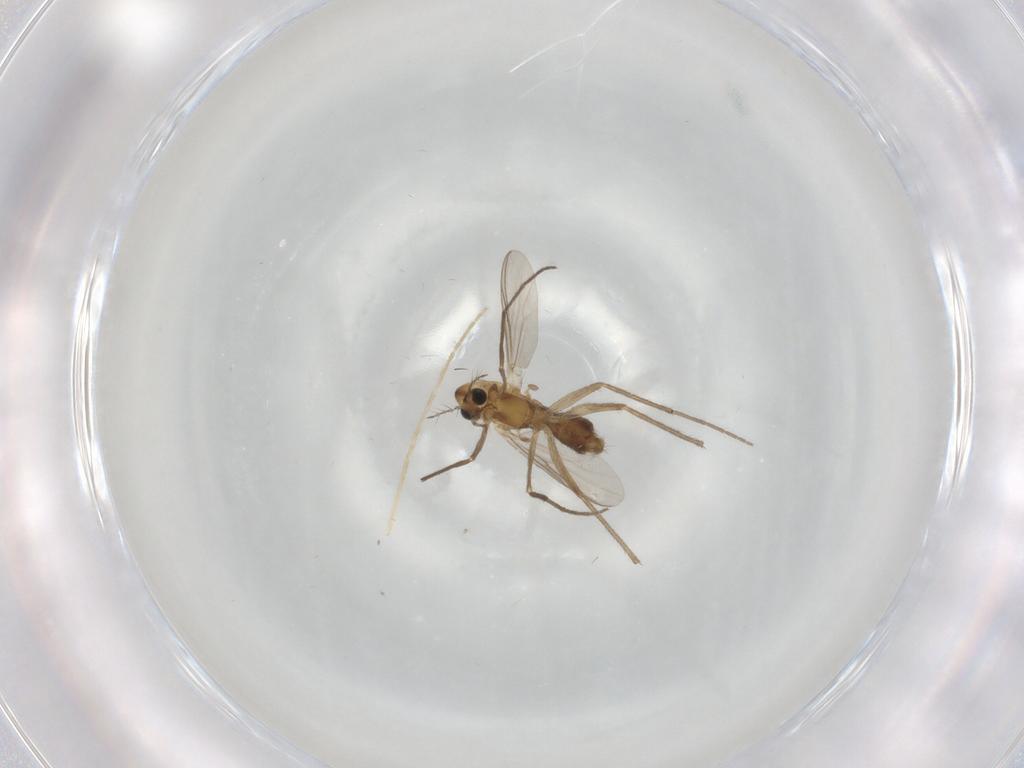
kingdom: Animalia
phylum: Arthropoda
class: Insecta
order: Diptera
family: Chironomidae
